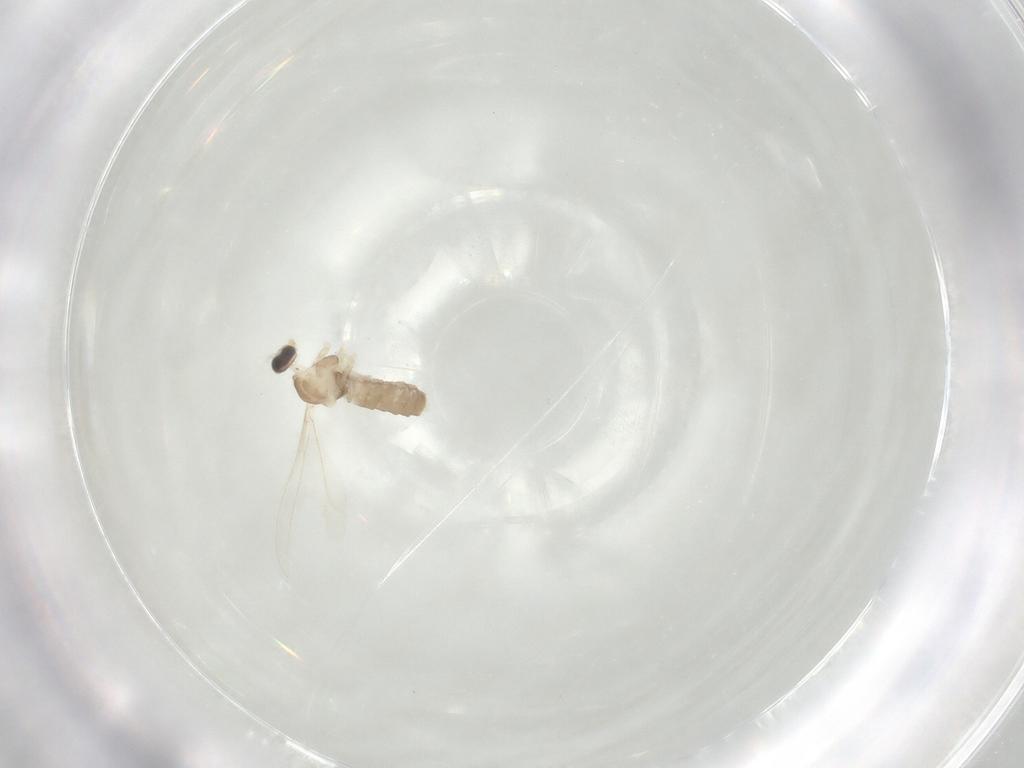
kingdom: Animalia
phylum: Arthropoda
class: Insecta
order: Diptera
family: Cecidomyiidae
